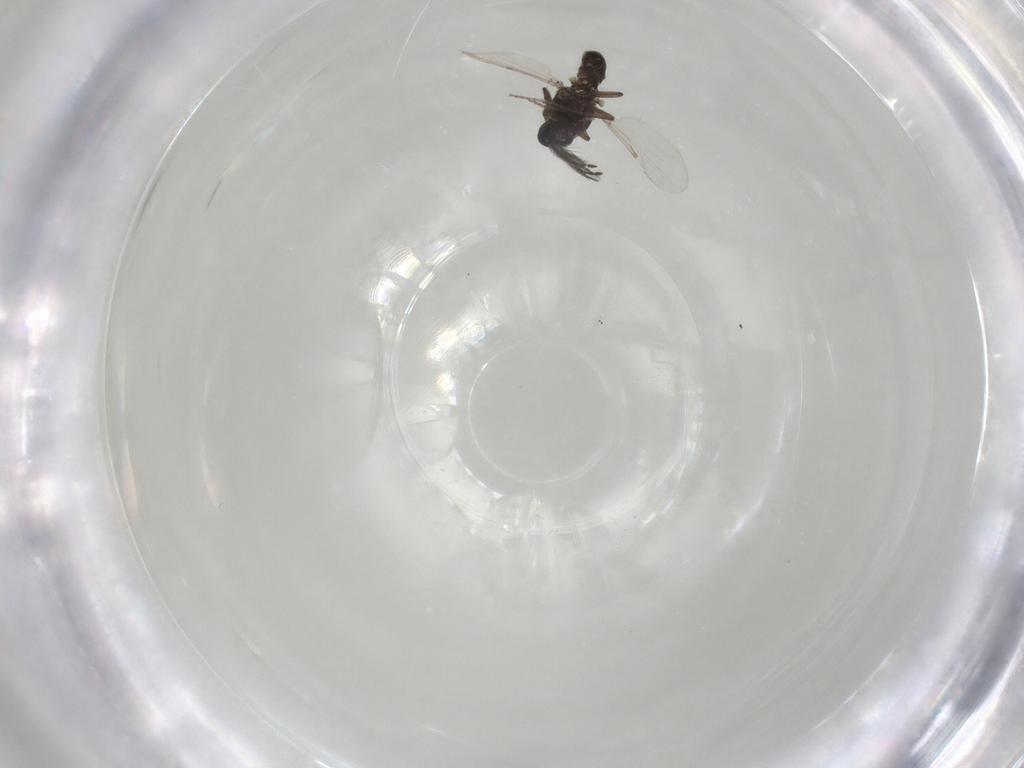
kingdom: Animalia
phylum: Arthropoda
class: Insecta
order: Diptera
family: Ceratopogonidae
